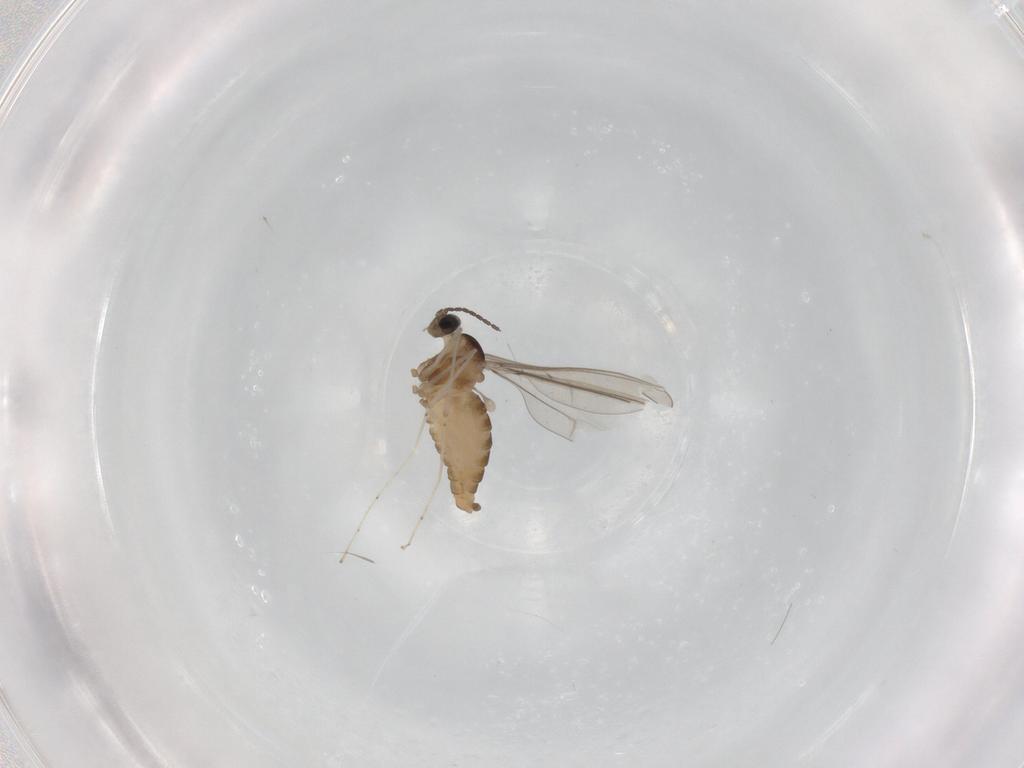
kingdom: Animalia
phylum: Arthropoda
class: Insecta
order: Diptera
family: Cecidomyiidae
